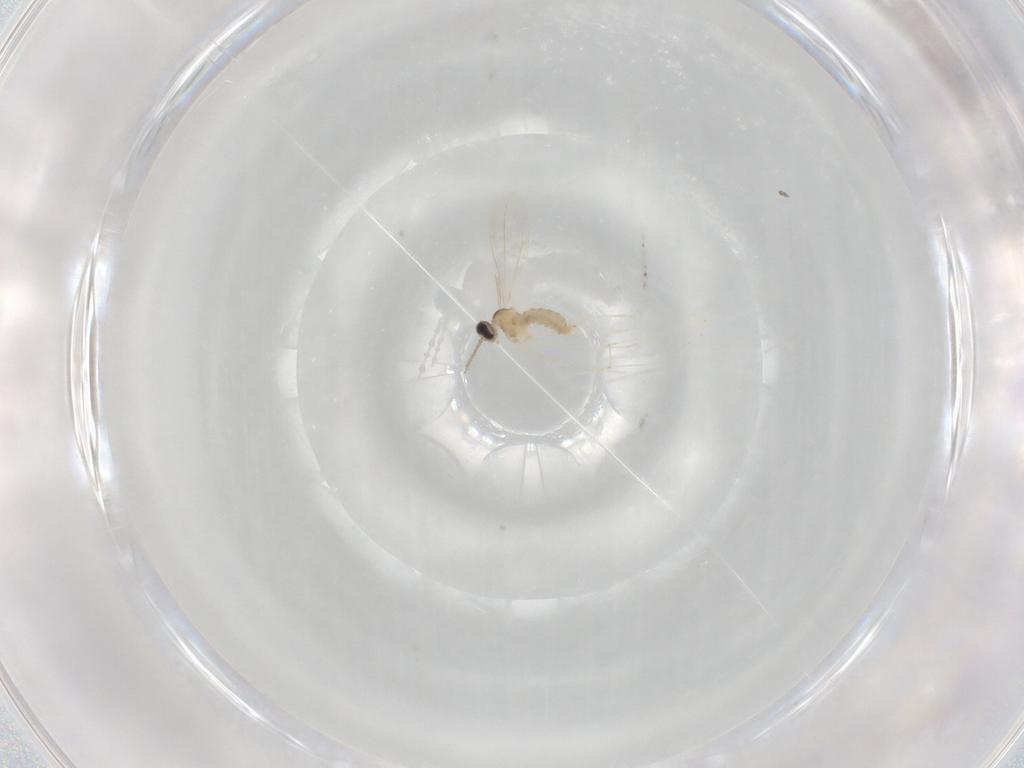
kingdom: Animalia
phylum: Arthropoda
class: Insecta
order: Diptera
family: Cecidomyiidae
